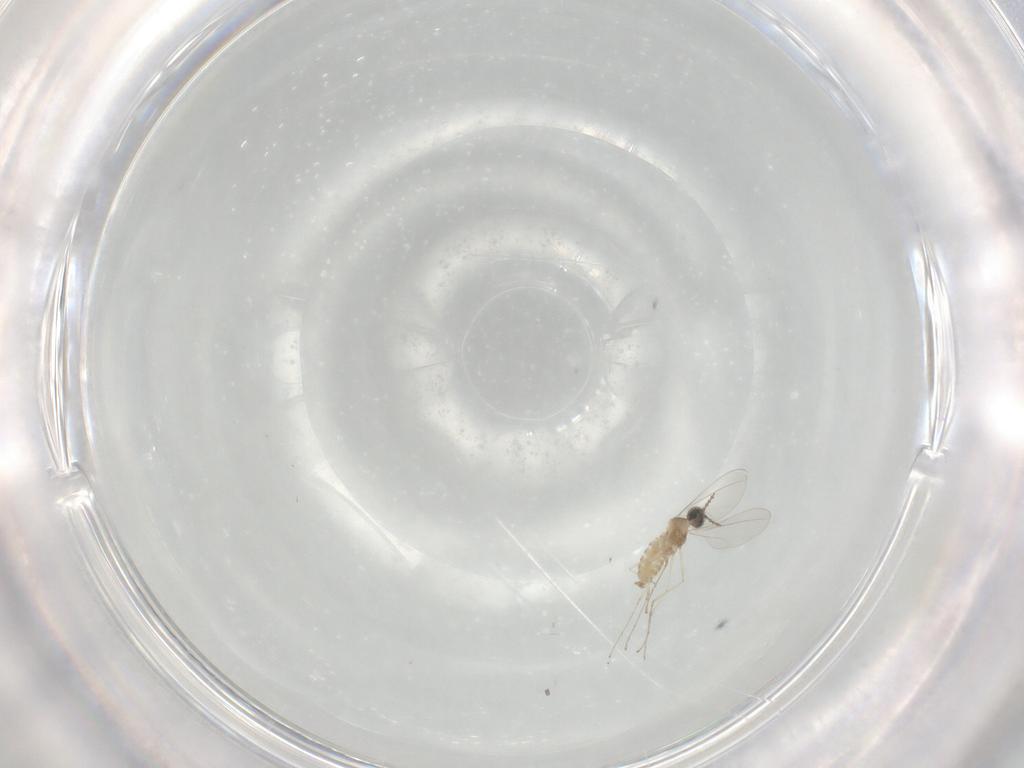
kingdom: Animalia
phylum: Arthropoda
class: Insecta
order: Diptera
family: Cecidomyiidae
